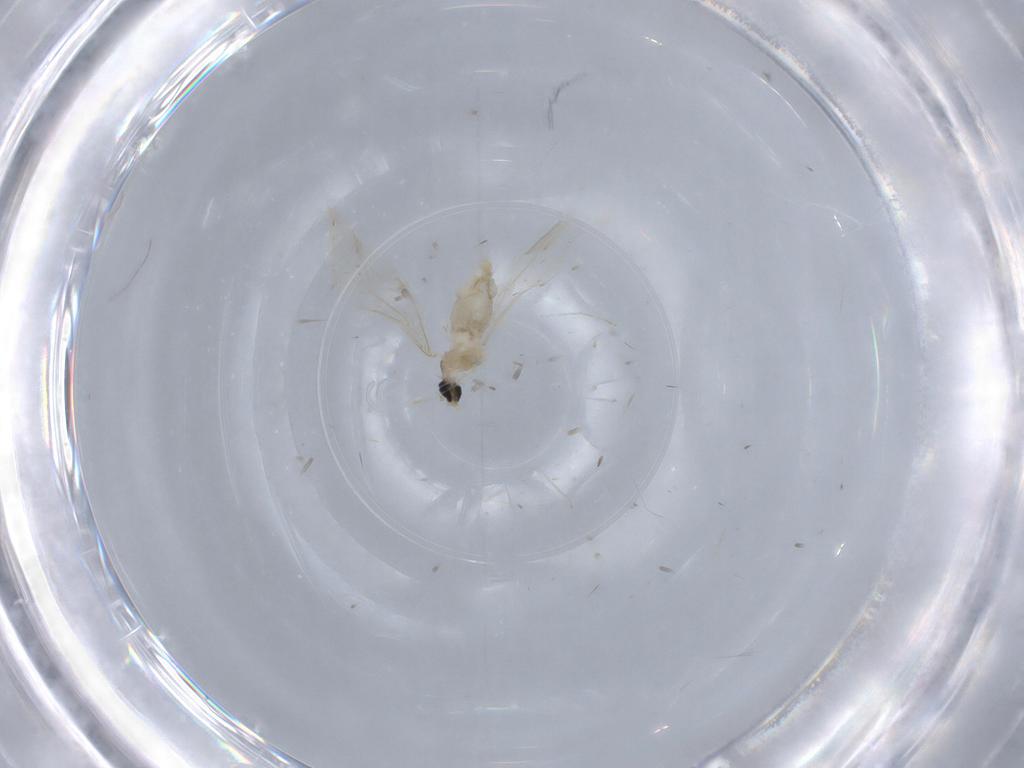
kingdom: Animalia
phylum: Arthropoda
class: Insecta
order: Diptera
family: Cecidomyiidae
